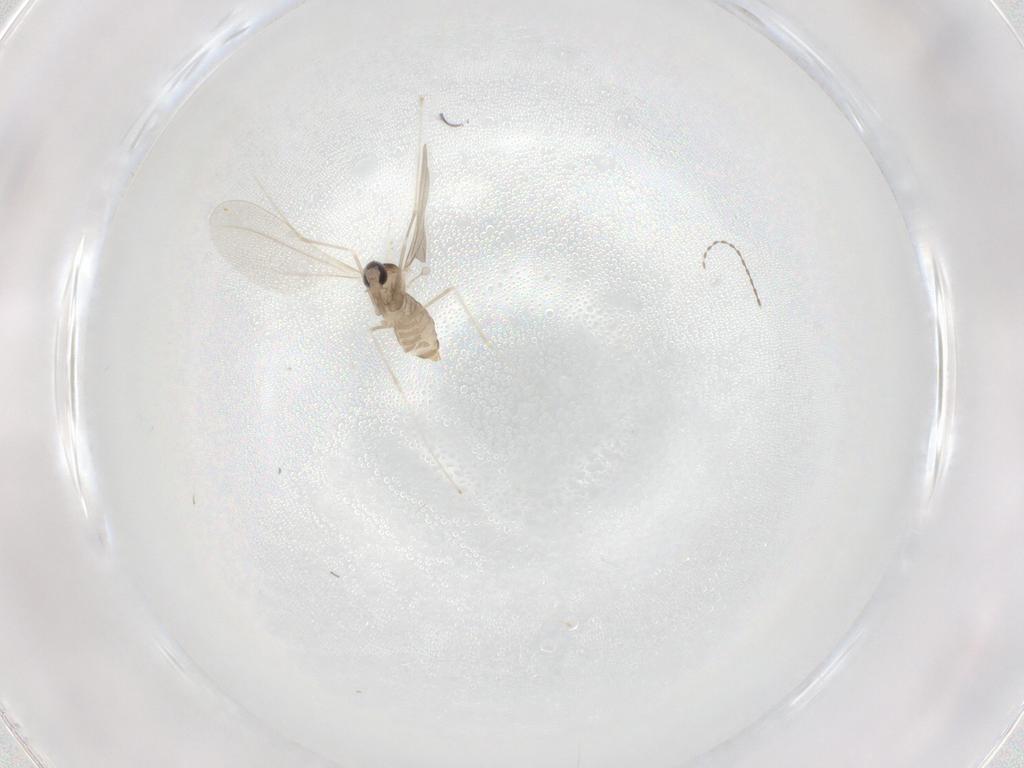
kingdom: Animalia
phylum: Arthropoda
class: Insecta
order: Diptera
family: Cecidomyiidae
